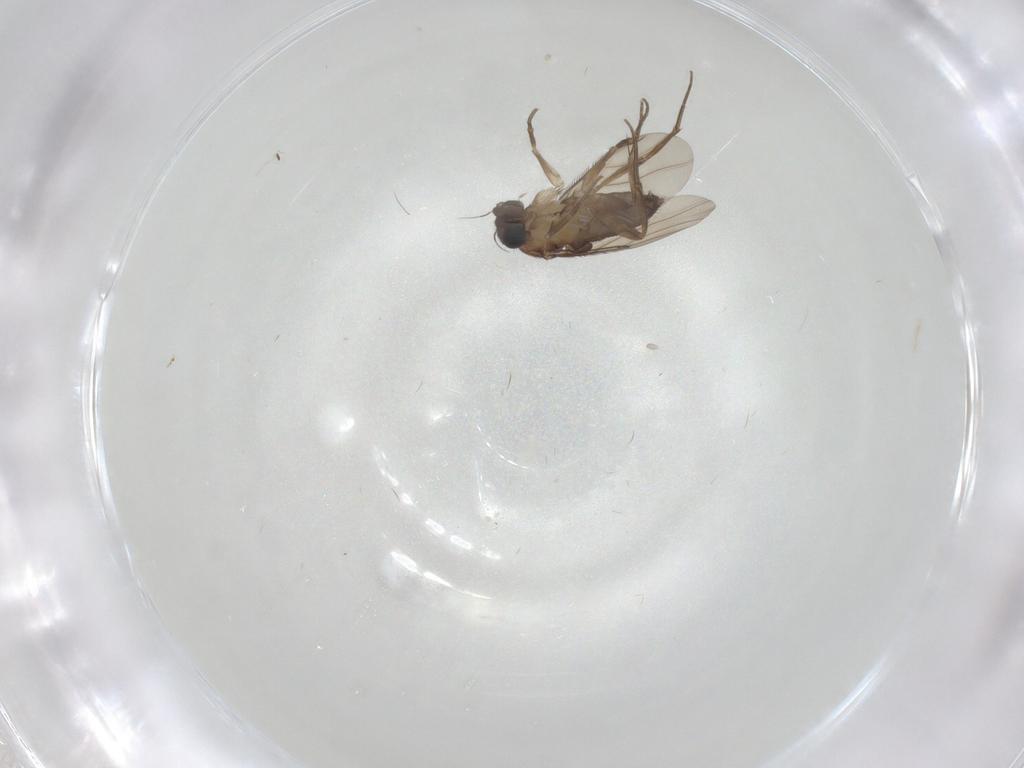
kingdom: Animalia
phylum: Arthropoda
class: Insecta
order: Diptera
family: Phoridae
